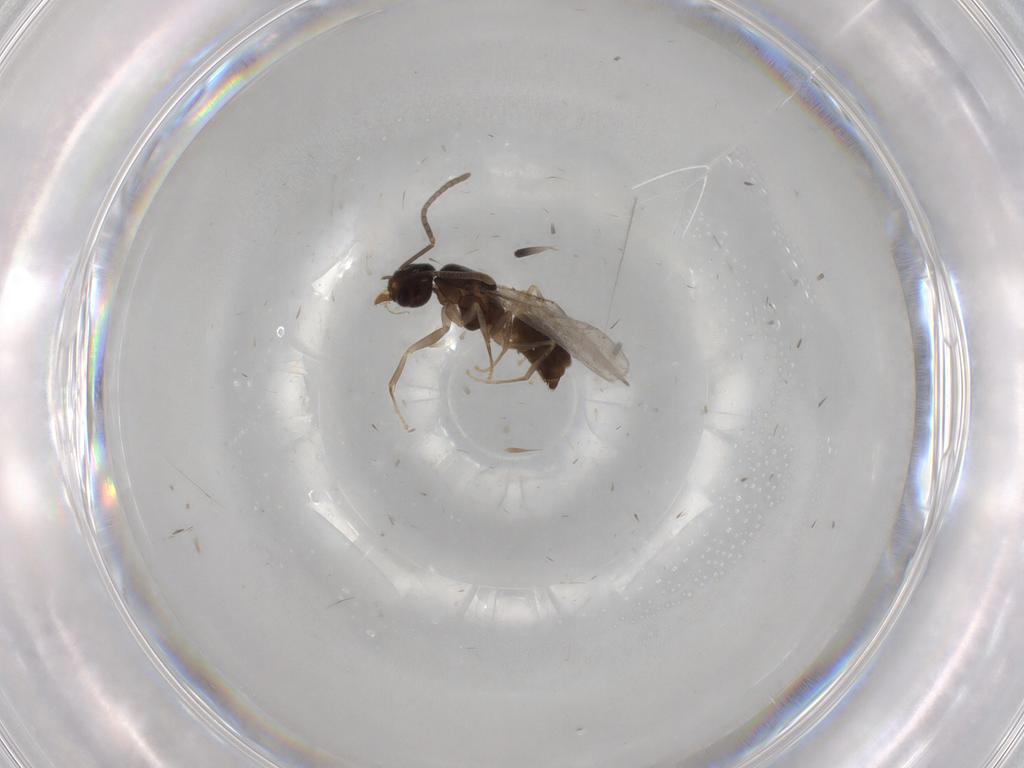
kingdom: Animalia
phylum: Arthropoda
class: Insecta
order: Hymenoptera
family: Formicidae
